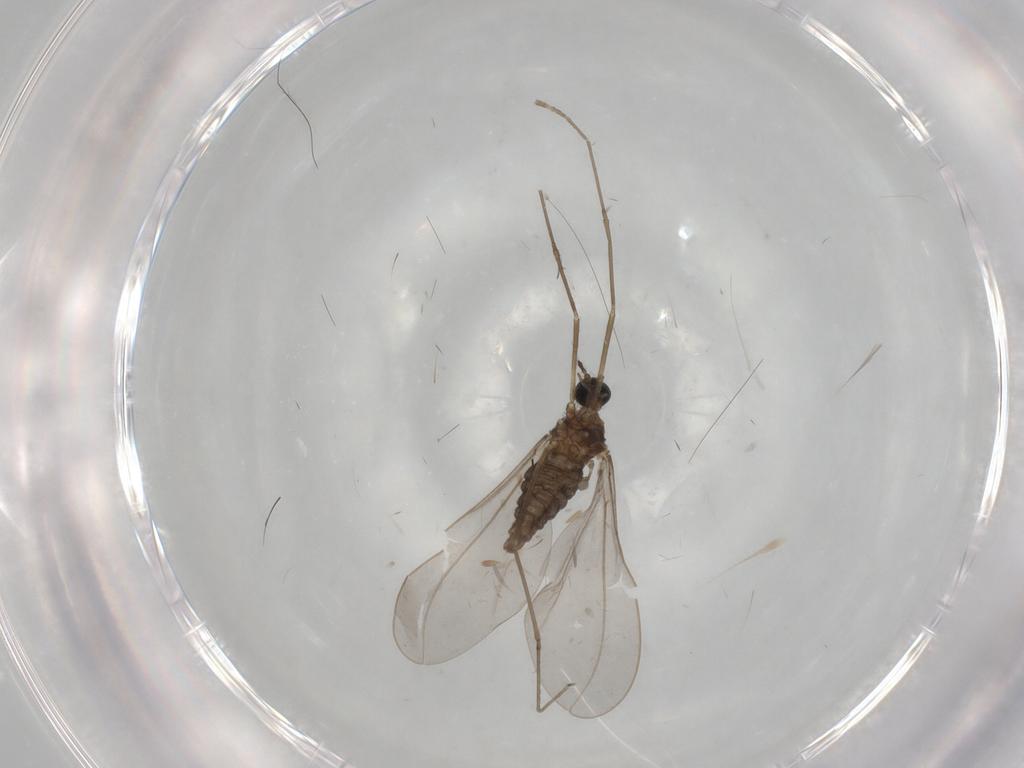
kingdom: Animalia
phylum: Arthropoda
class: Insecta
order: Diptera
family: Cecidomyiidae
